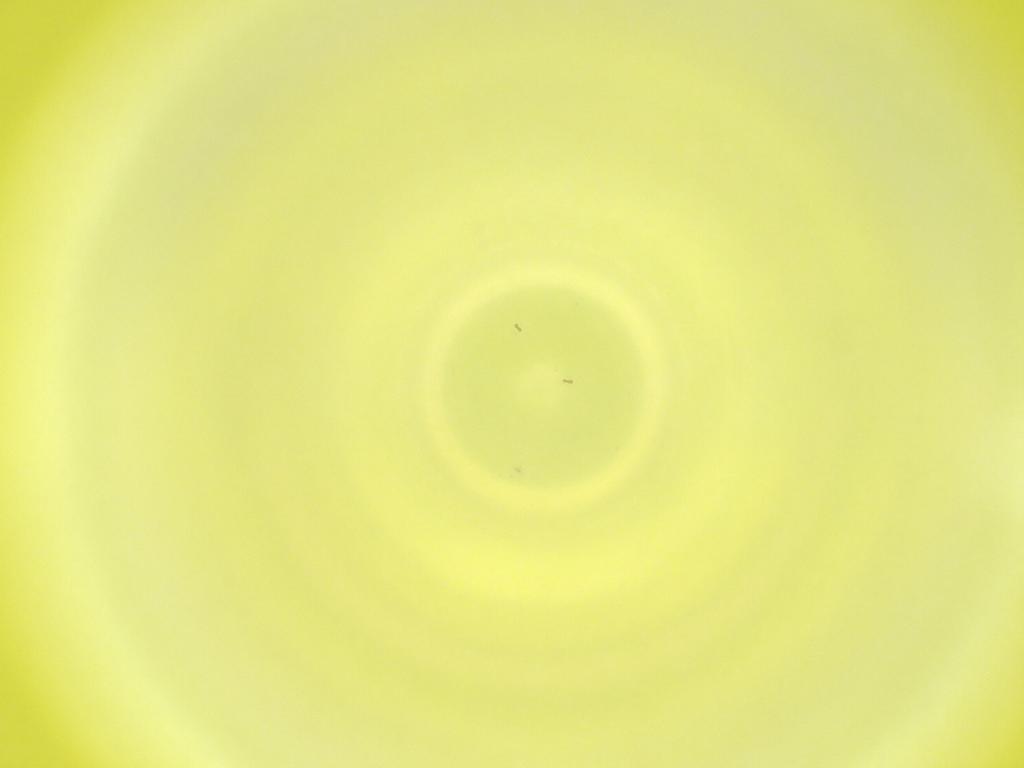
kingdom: Animalia
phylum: Arthropoda
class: Insecta
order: Diptera
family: Cecidomyiidae
